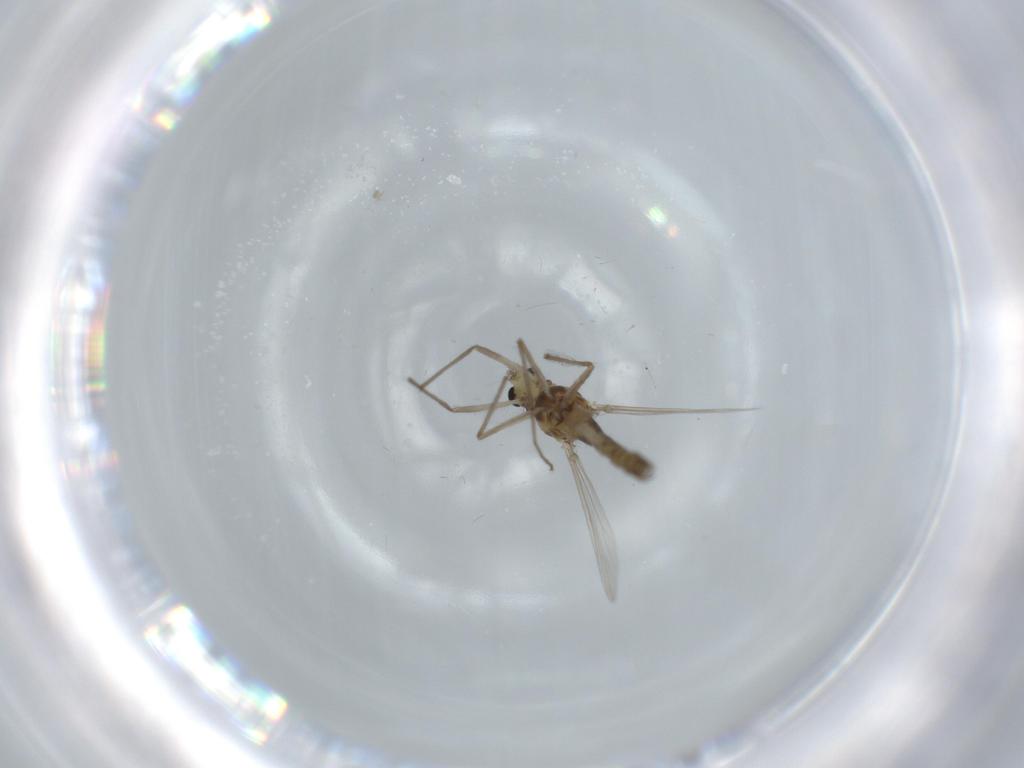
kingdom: Animalia
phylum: Arthropoda
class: Insecta
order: Diptera
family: Chironomidae
